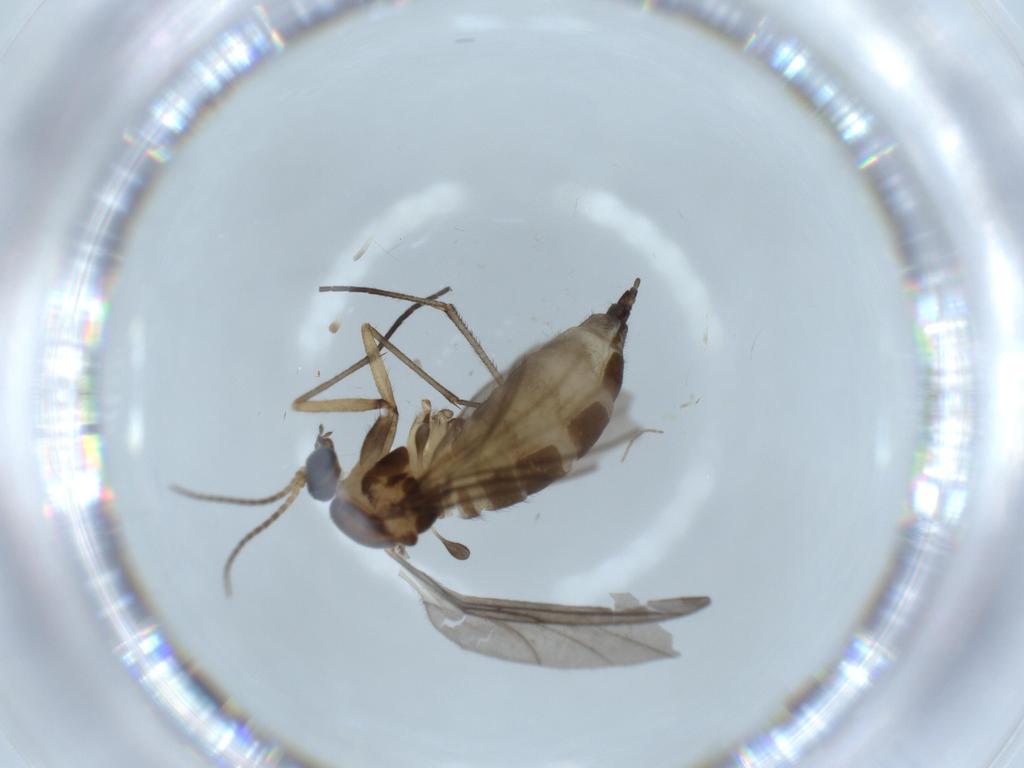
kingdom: Animalia
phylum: Arthropoda
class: Insecta
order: Diptera
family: Sciaridae
